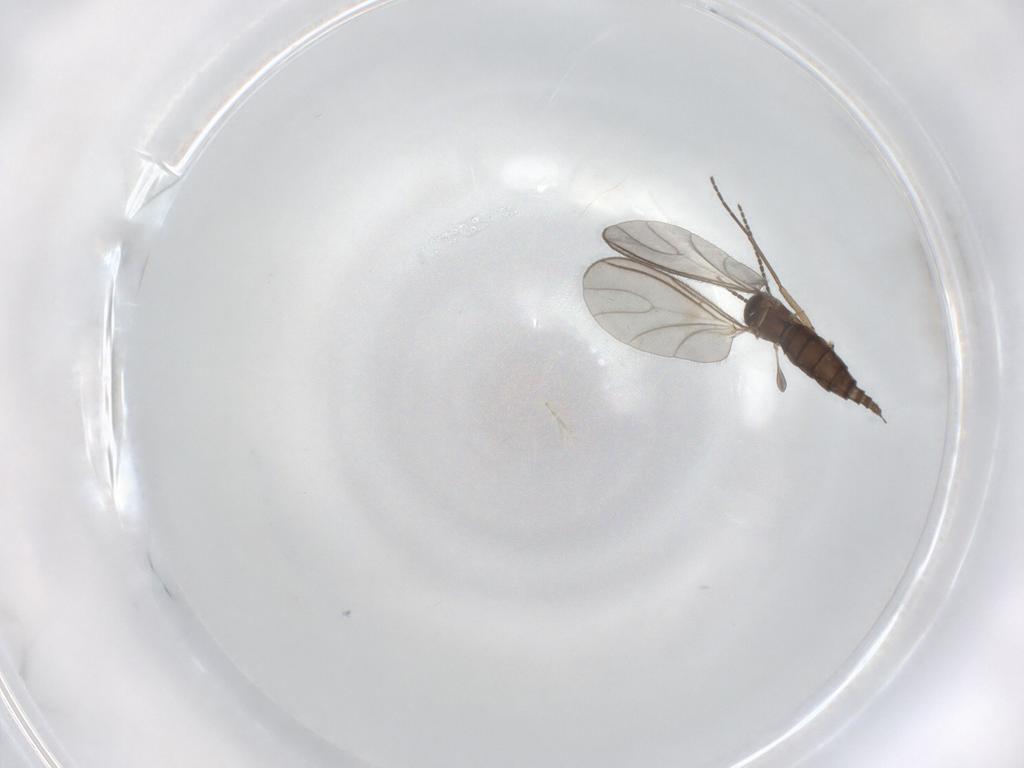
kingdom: Animalia
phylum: Arthropoda
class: Insecta
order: Diptera
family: Sciaridae
